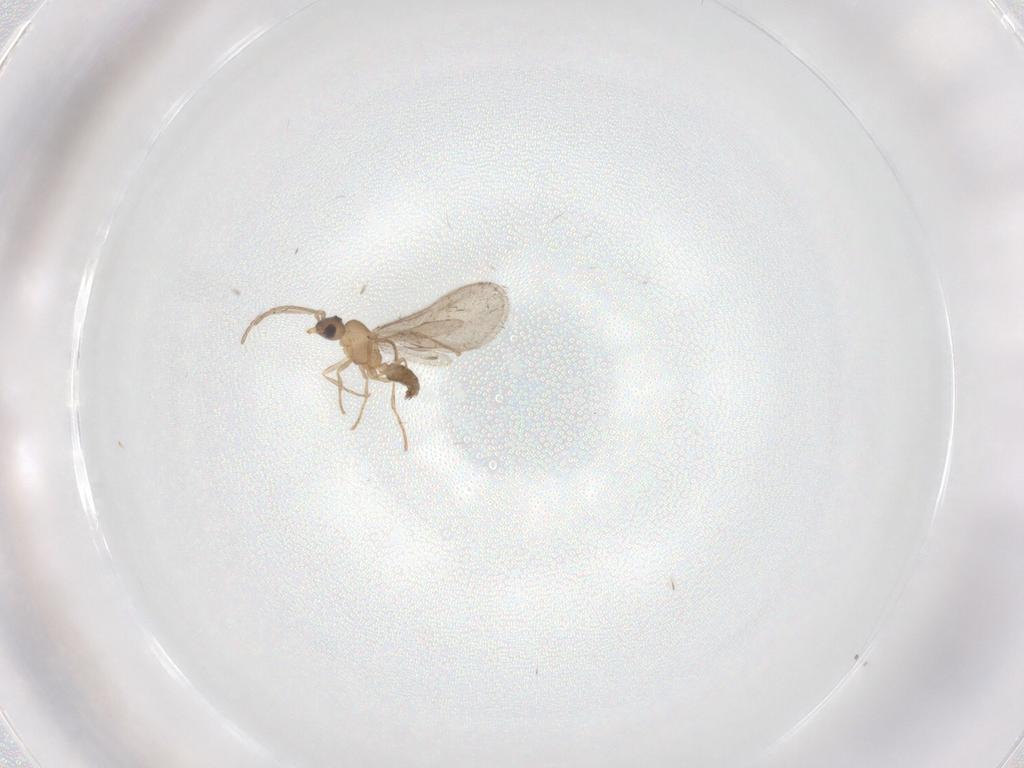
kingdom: Animalia
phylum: Arthropoda
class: Insecta
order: Hymenoptera
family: Formicidae
